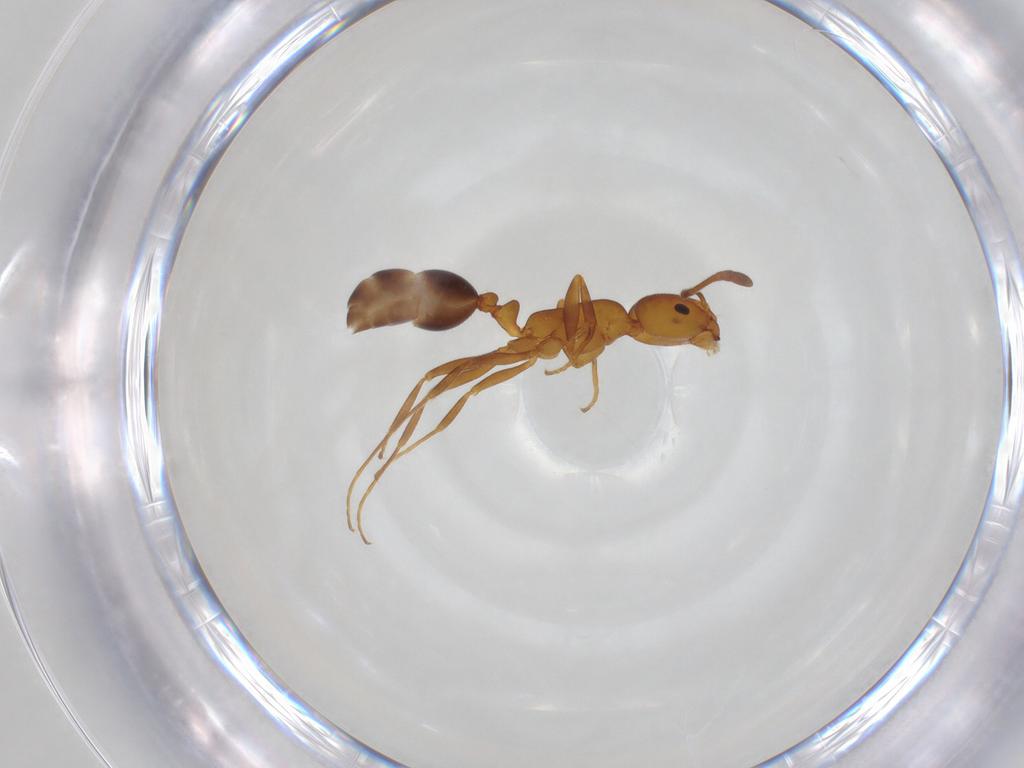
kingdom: Animalia
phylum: Arthropoda
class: Insecta
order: Hymenoptera
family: Formicidae
